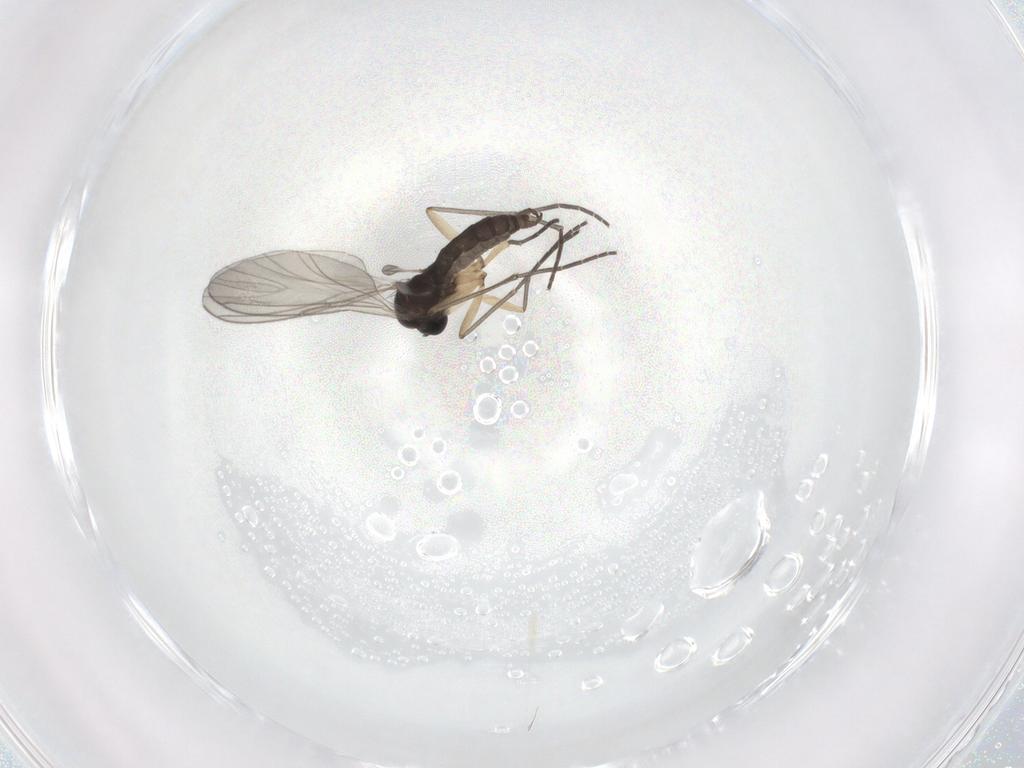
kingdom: Animalia
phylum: Arthropoda
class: Insecta
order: Diptera
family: Sciaridae
